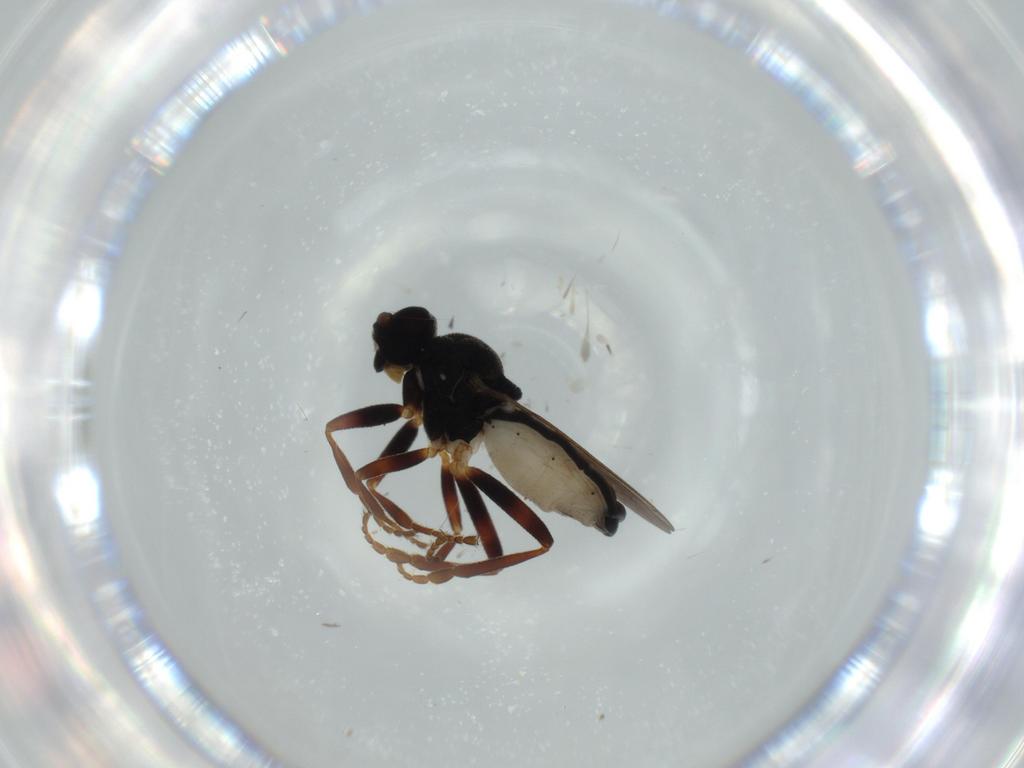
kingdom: Animalia
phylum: Arthropoda
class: Insecta
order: Diptera
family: Sphaeroceridae
